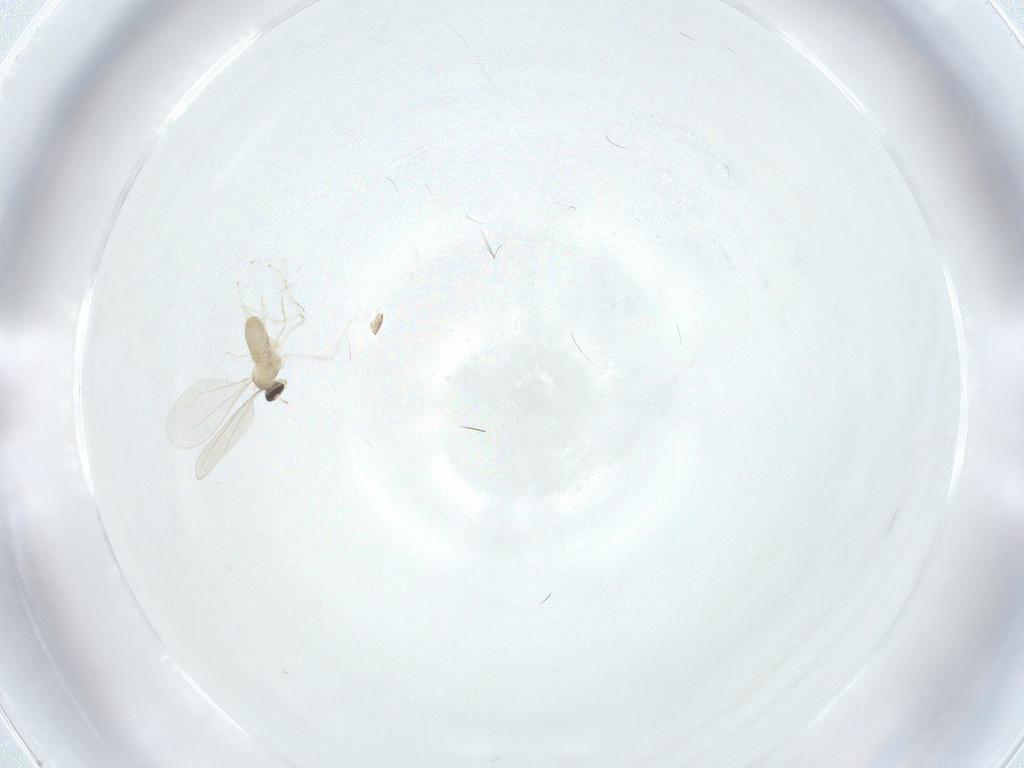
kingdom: Animalia
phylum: Arthropoda
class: Insecta
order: Diptera
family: Cecidomyiidae
